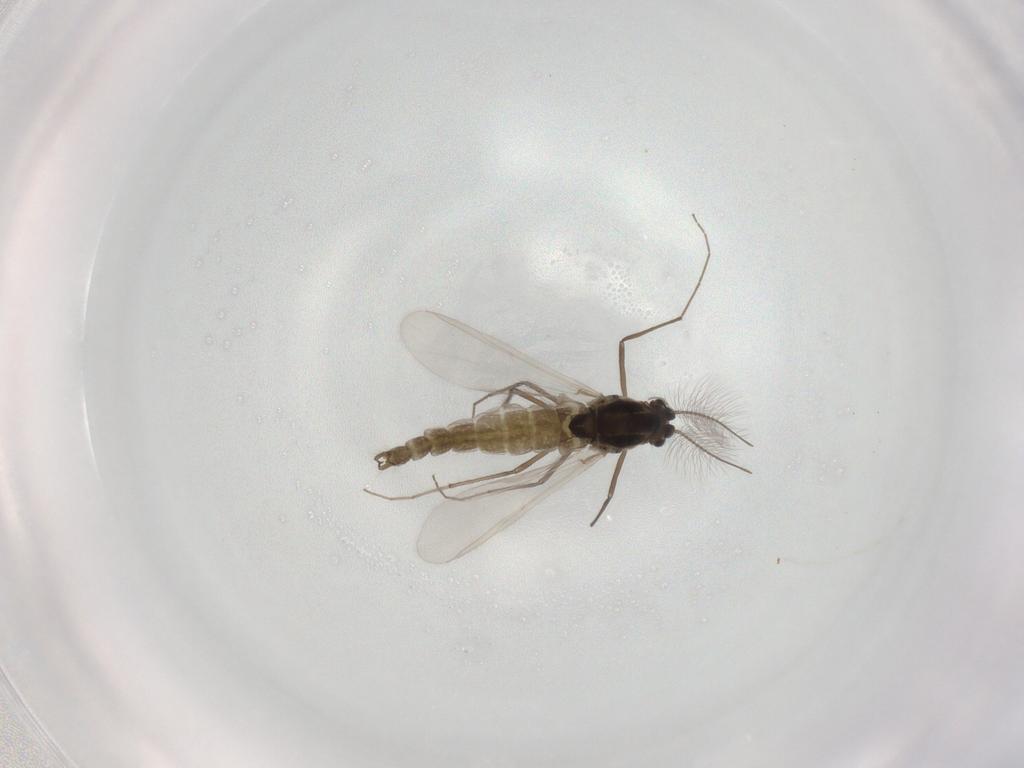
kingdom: Animalia
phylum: Arthropoda
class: Insecta
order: Diptera
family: Chironomidae
